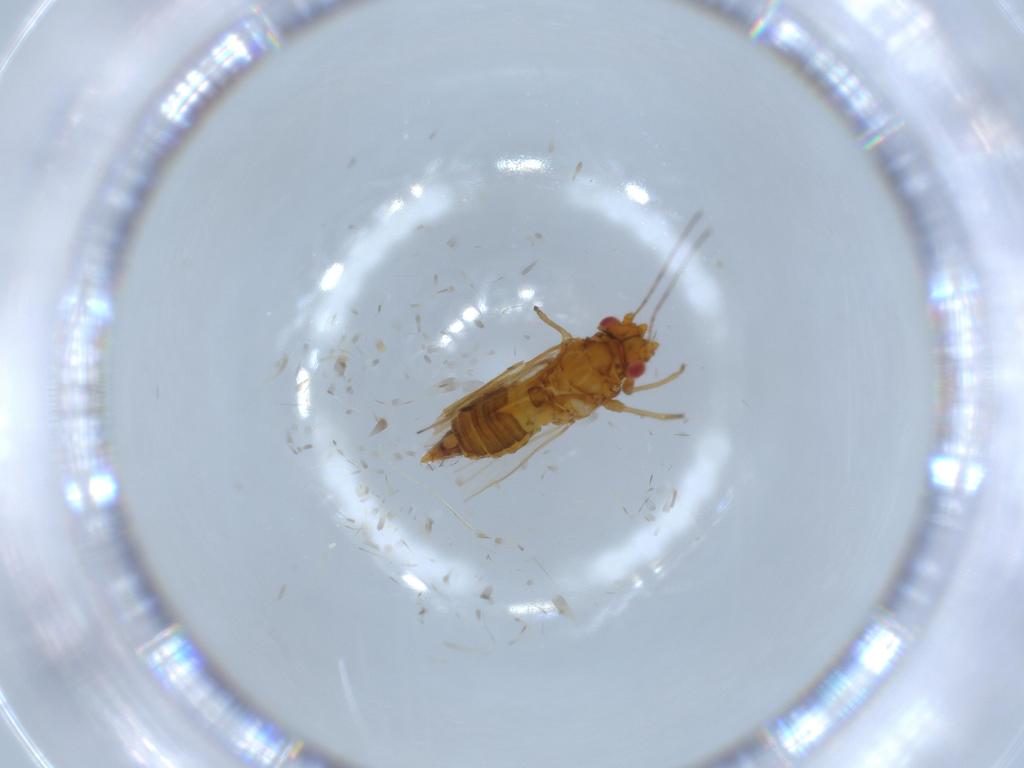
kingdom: Animalia
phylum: Arthropoda
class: Insecta
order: Hemiptera
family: Psylloidea_incertae_sedis
